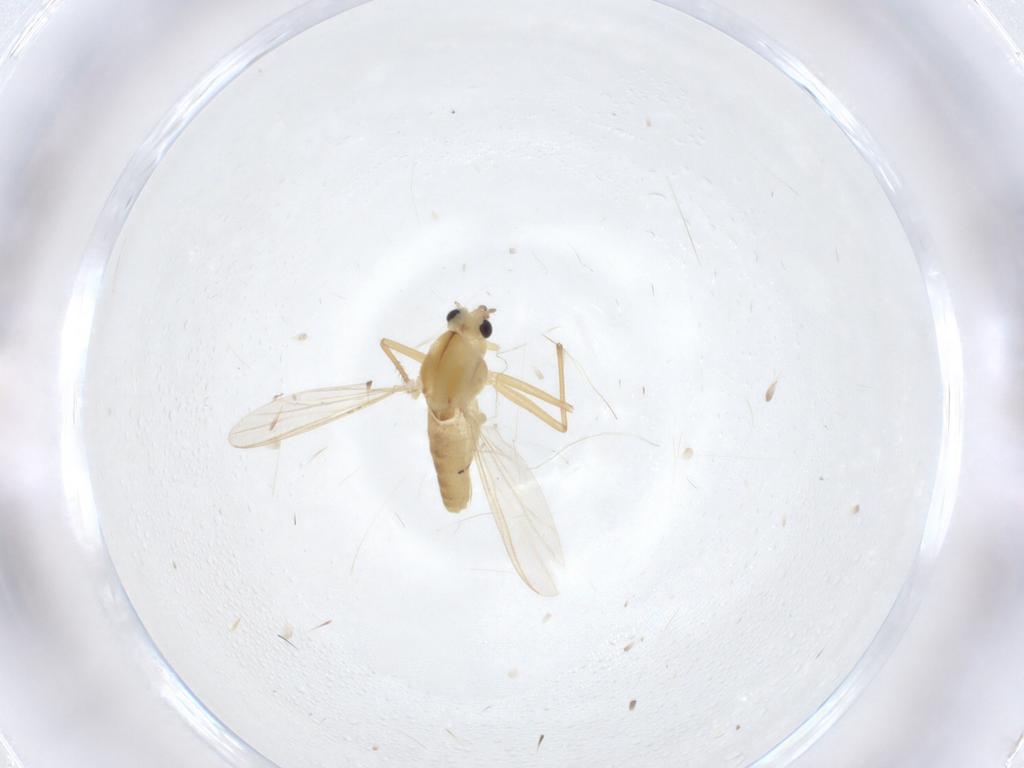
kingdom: Animalia
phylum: Arthropoda
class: Insecta
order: Diptera
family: Chironomidae
